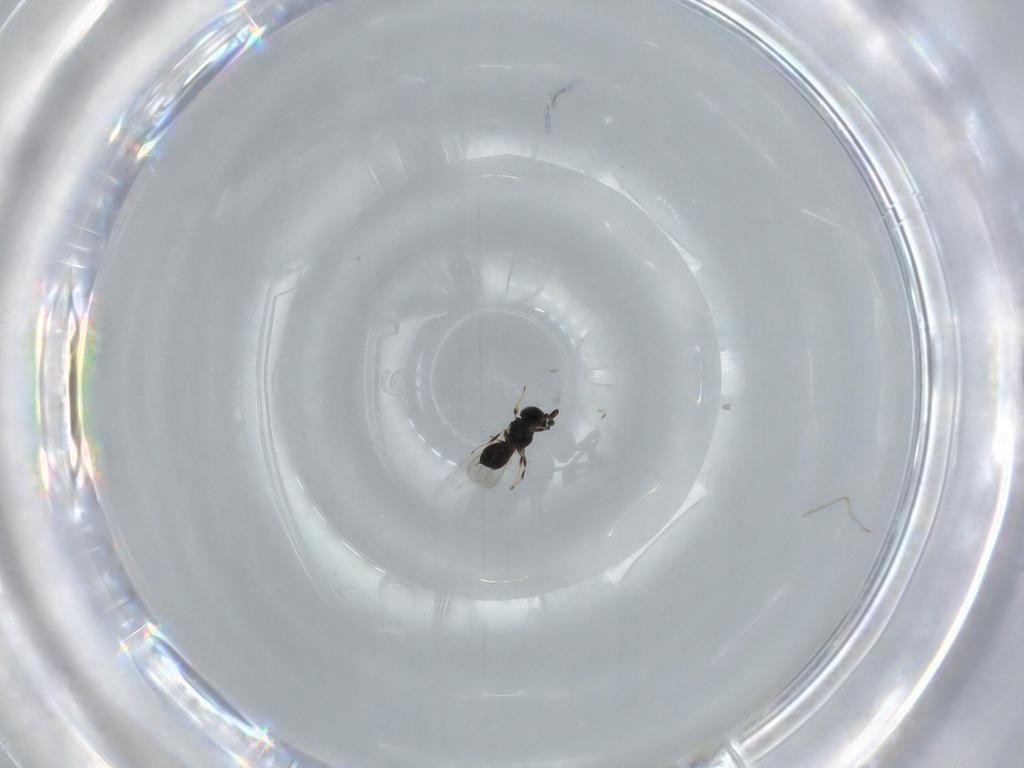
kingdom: Animalia
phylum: Arthropoda
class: Insecta
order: Hymenoptera
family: Scelionidae
